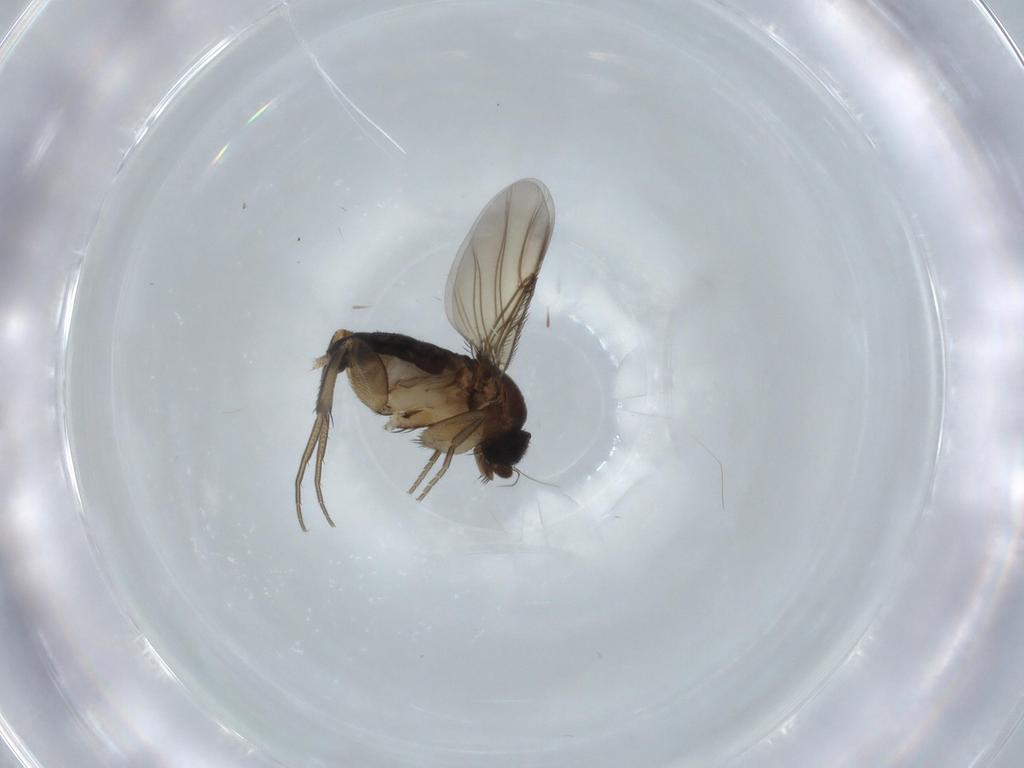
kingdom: Animalia
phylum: Arthropoda
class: Insecta
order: Diptera
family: Phoridae
